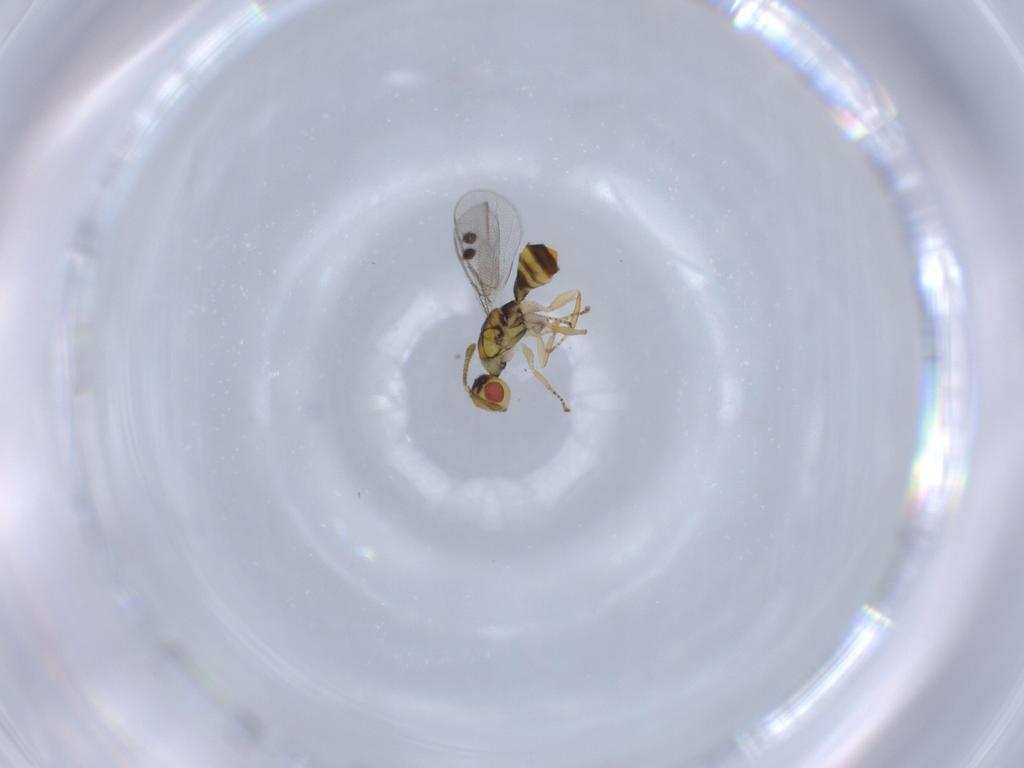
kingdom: Animalia
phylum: Arthropoda
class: Insecta
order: Hymenoptera
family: Megastigmidae
